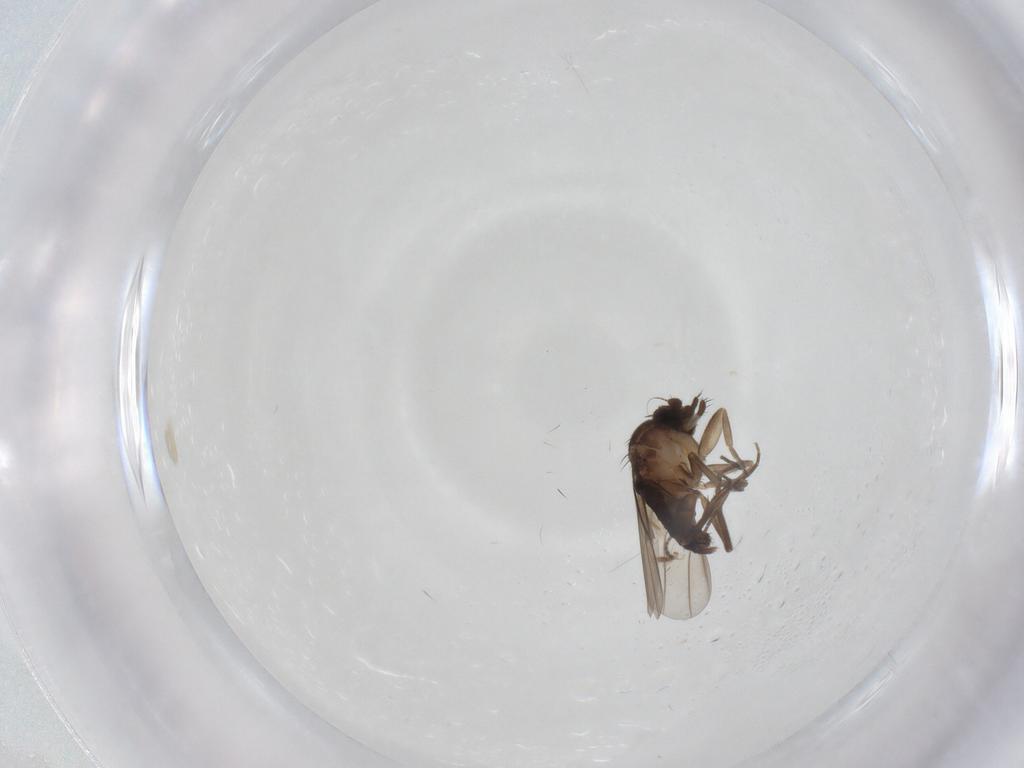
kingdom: Animalia
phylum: Arthropoda
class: Insecta
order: Diptera
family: Phoridae
